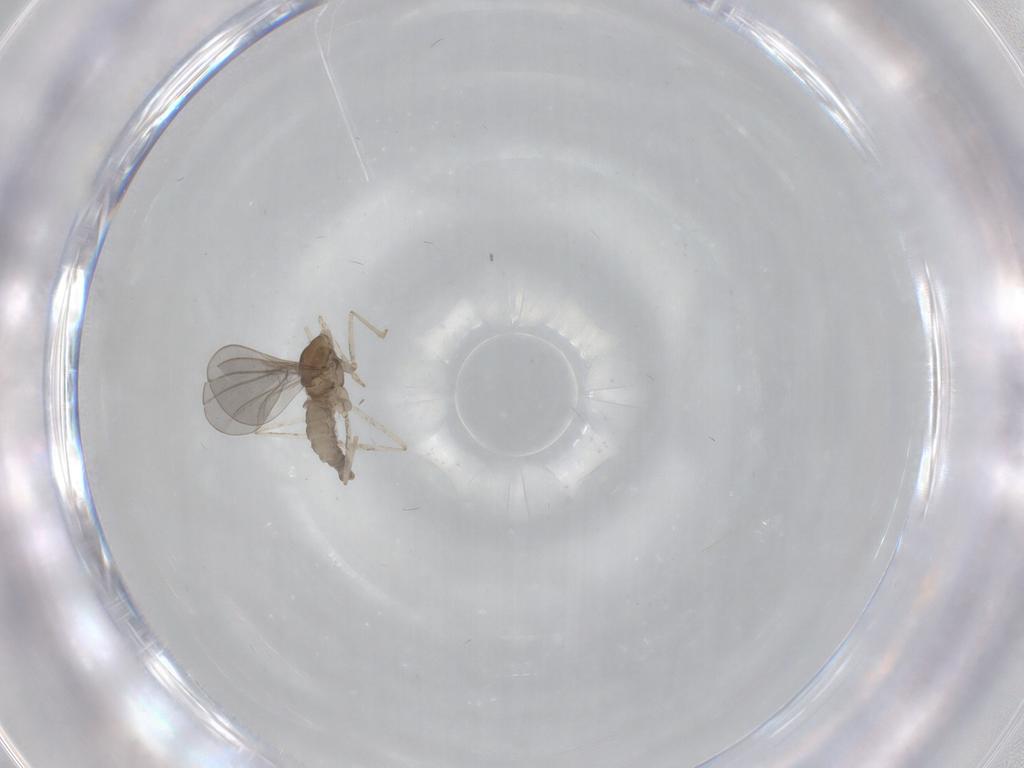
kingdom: Animalia
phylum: Arthropoda
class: Insecta
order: Diptera
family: Cecidomyiidae
